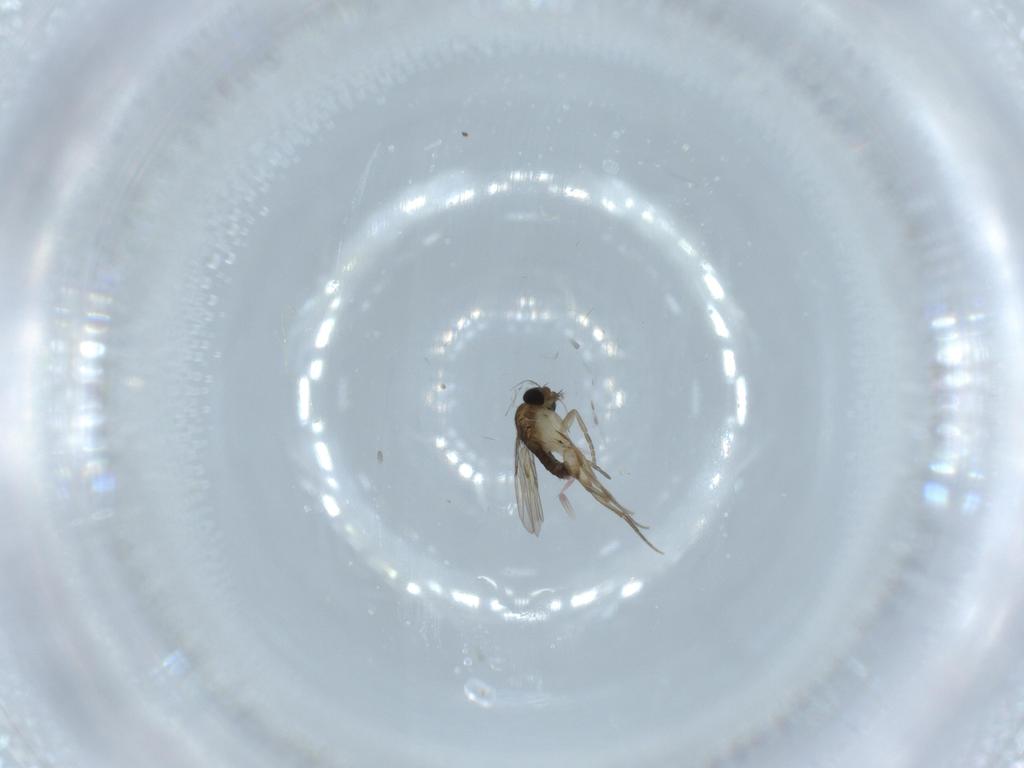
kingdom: Animalia
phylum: Arthropoda
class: Insecta
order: Diptera
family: Phoridae
